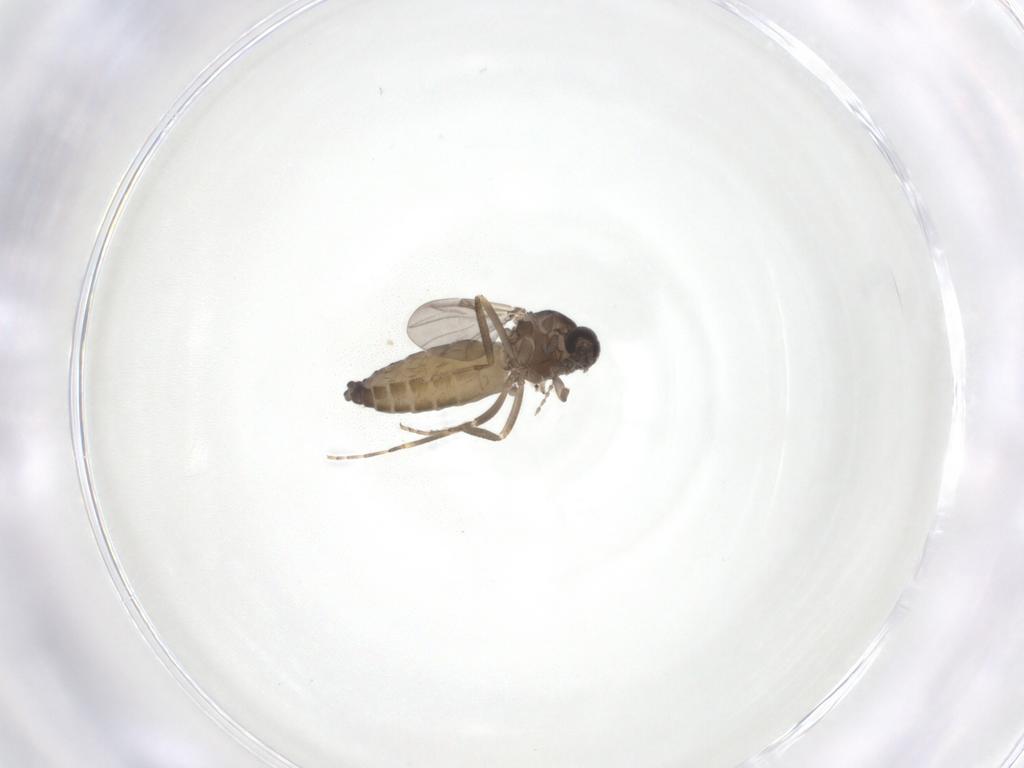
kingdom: Animalia
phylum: Arthropoda
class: Insecta
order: Diptera
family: Ceratopogonidae
